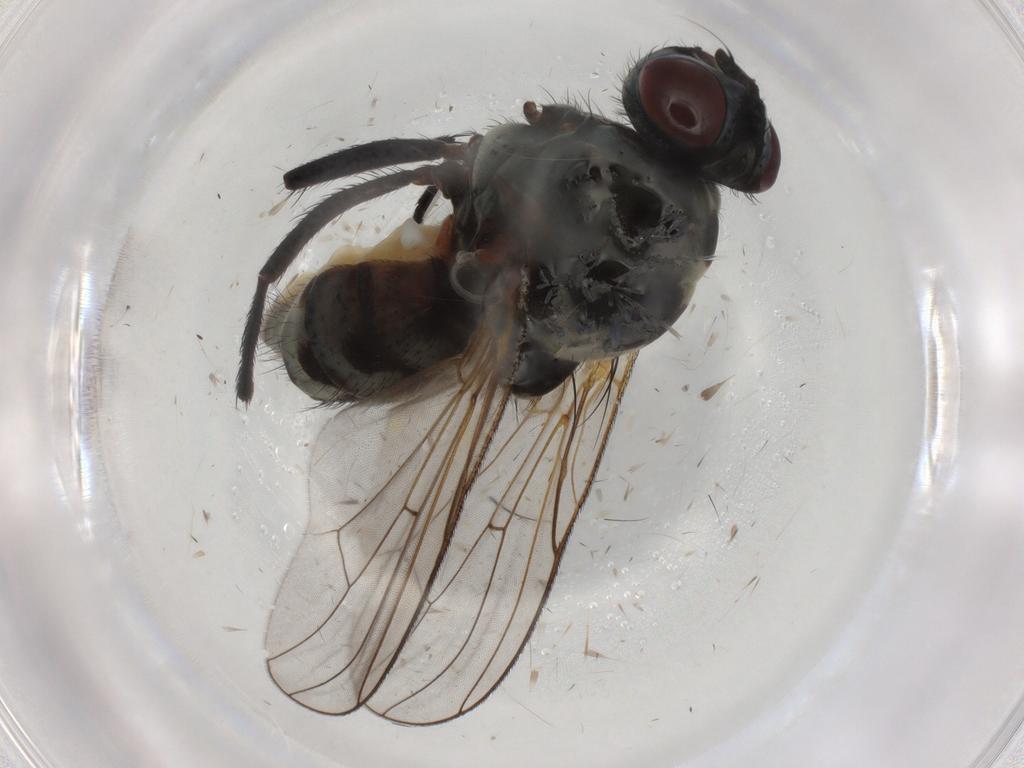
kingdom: Animalia
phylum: Arthropoda
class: Insecta
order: Diptera
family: Anthomyiidae
